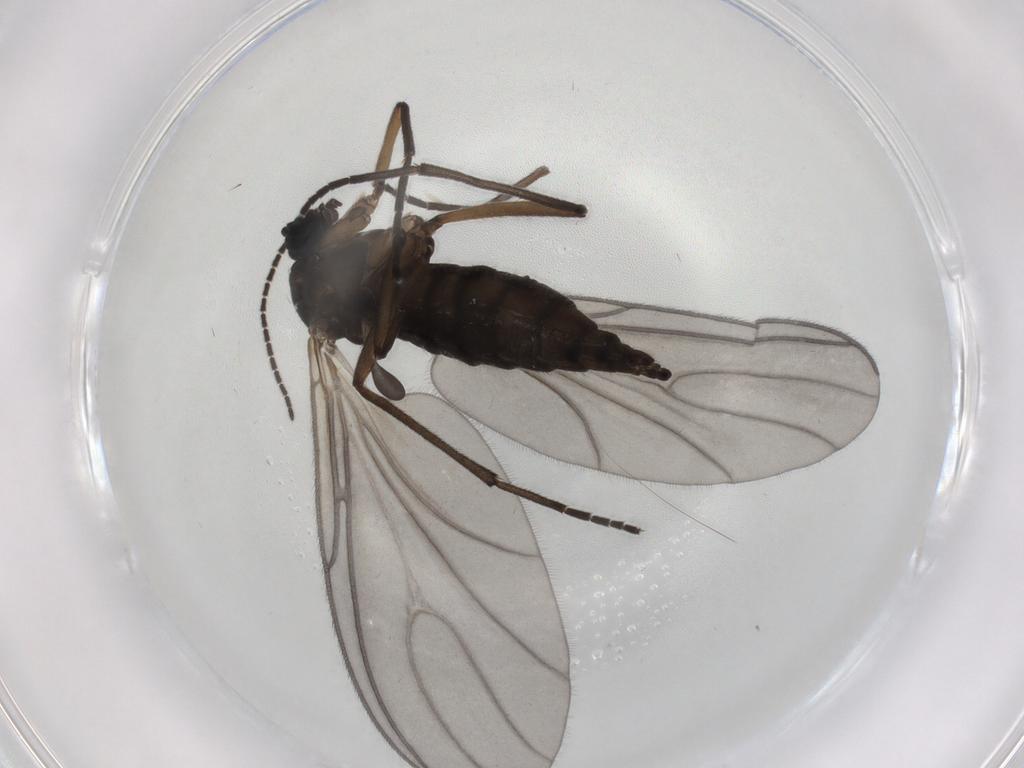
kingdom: Animalia
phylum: Arthropoda
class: Insecta
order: Diptera
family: Sciaridae
